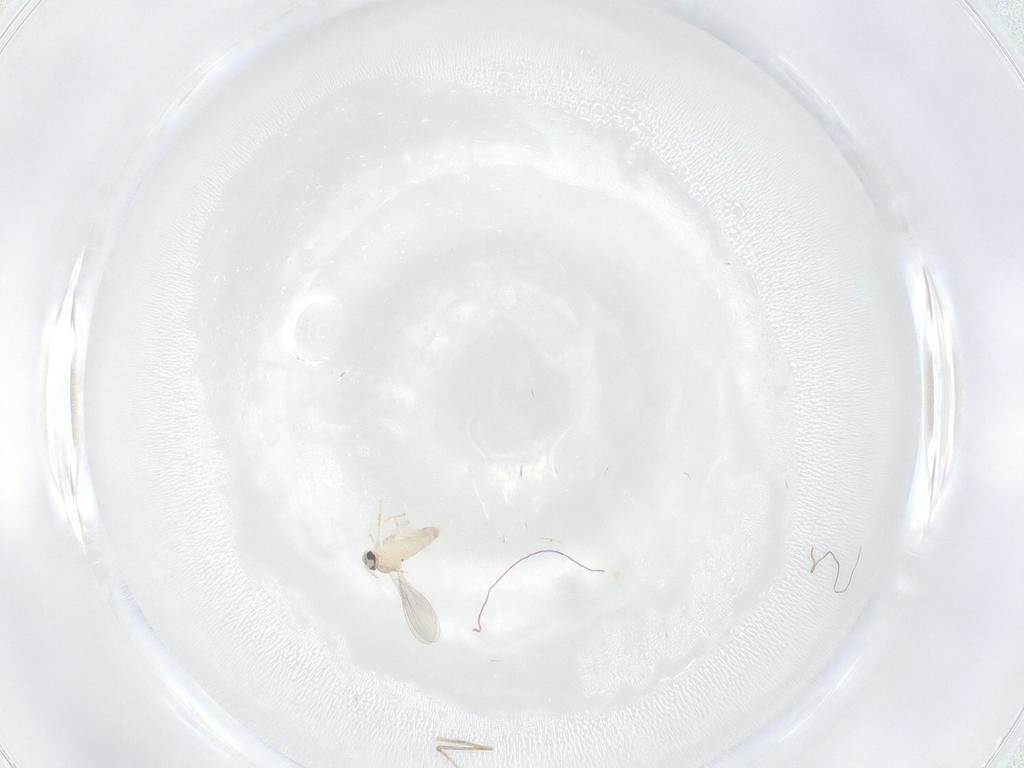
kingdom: Animalia
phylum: Arthropoda
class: Insecta
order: Diptera
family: Cecidomyiidae
